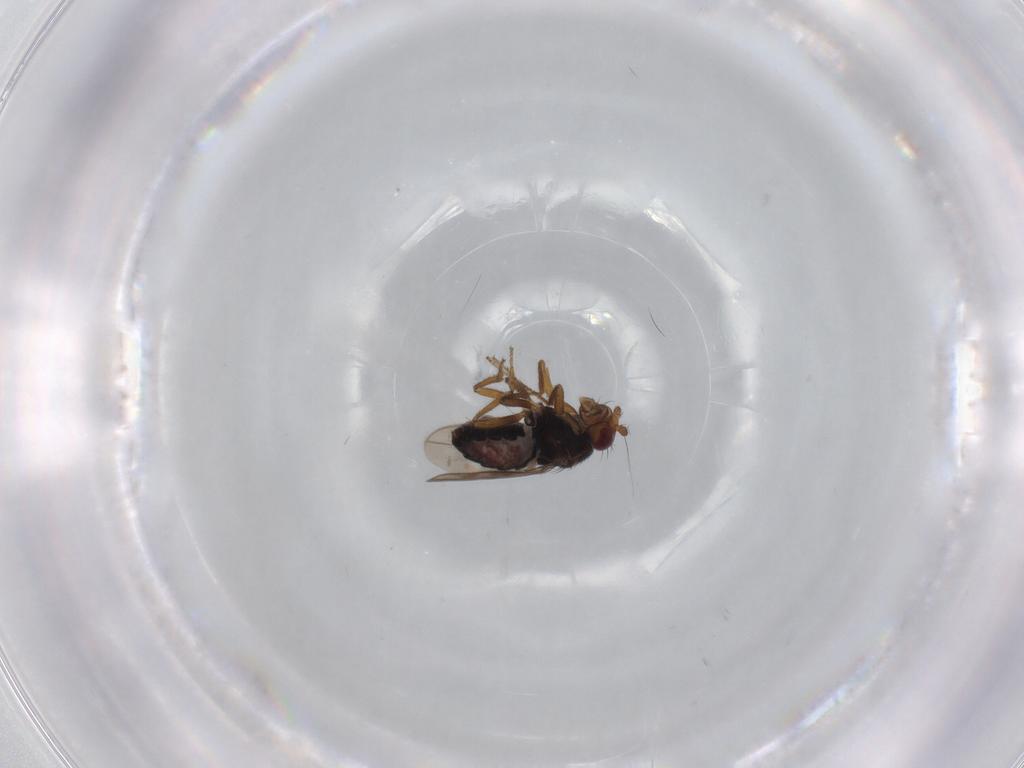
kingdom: Animalia
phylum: Arthropoda
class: Insecta
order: Diptera
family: Sphaeroceridae
